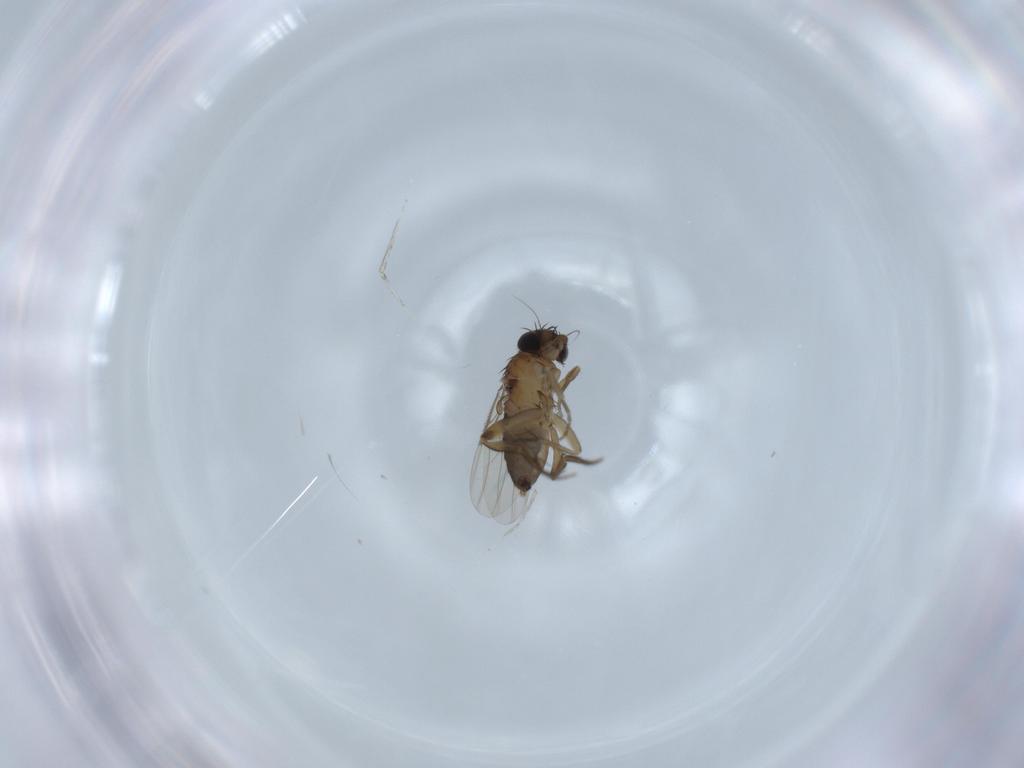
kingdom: Animalia
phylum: Arthropoda
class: Insecta
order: Diptera
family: Phoridae
